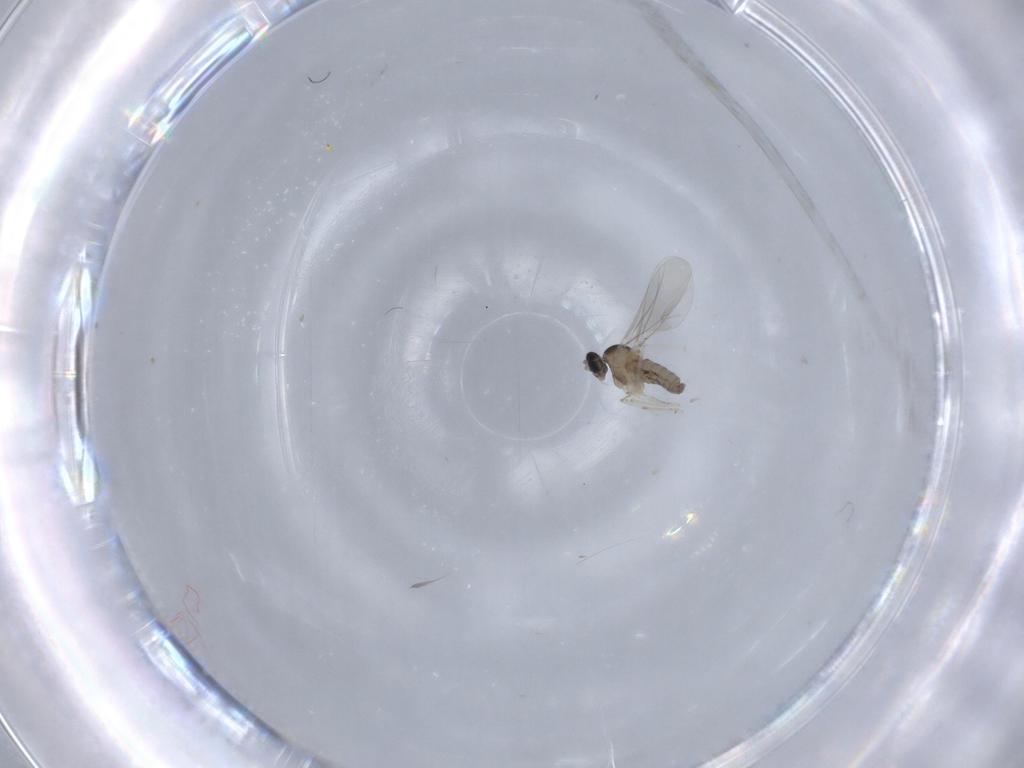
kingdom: Animalia
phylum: Arthropoda
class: Insecta
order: Diptera
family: Cecidomyiidae
